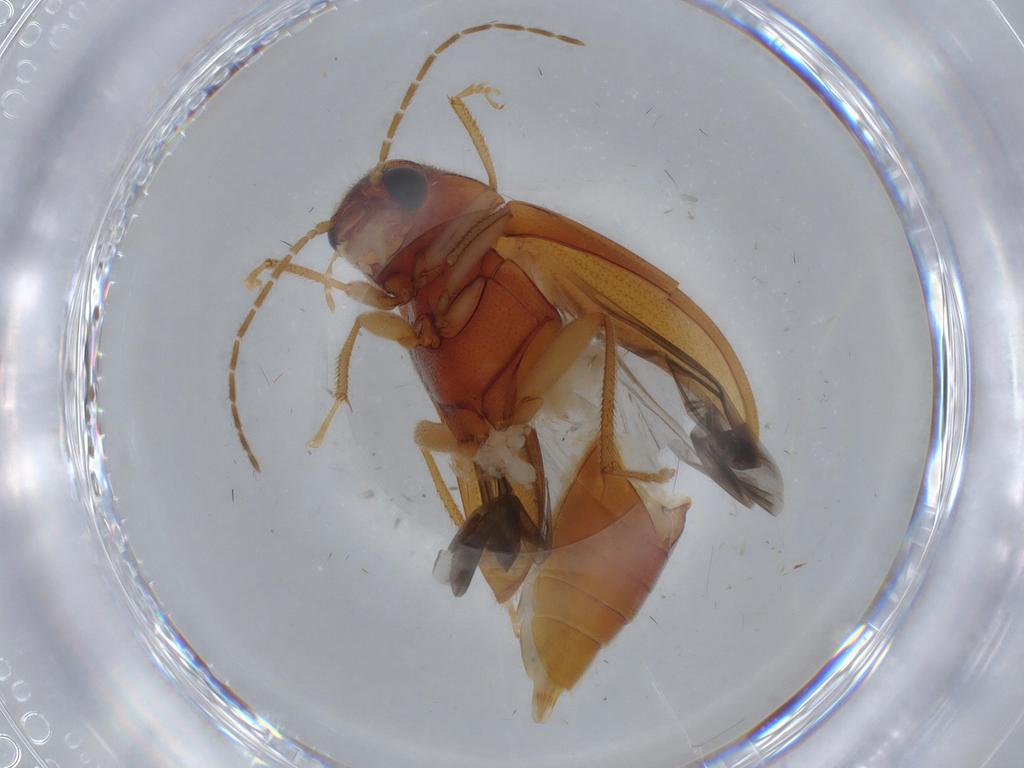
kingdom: Animalia
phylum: Arthropoda
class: Insecta
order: Coleoptera
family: Ptilodactylidae
